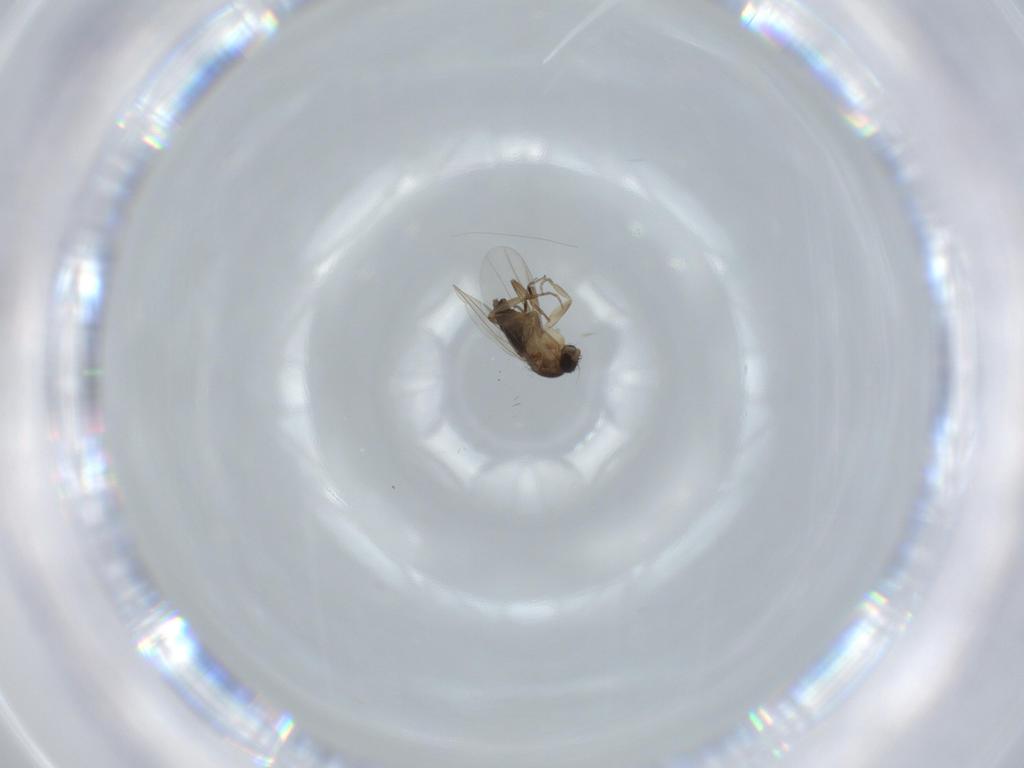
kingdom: Animalia
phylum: Arthropoda
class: Insecta
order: Diptera
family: Phoridae
